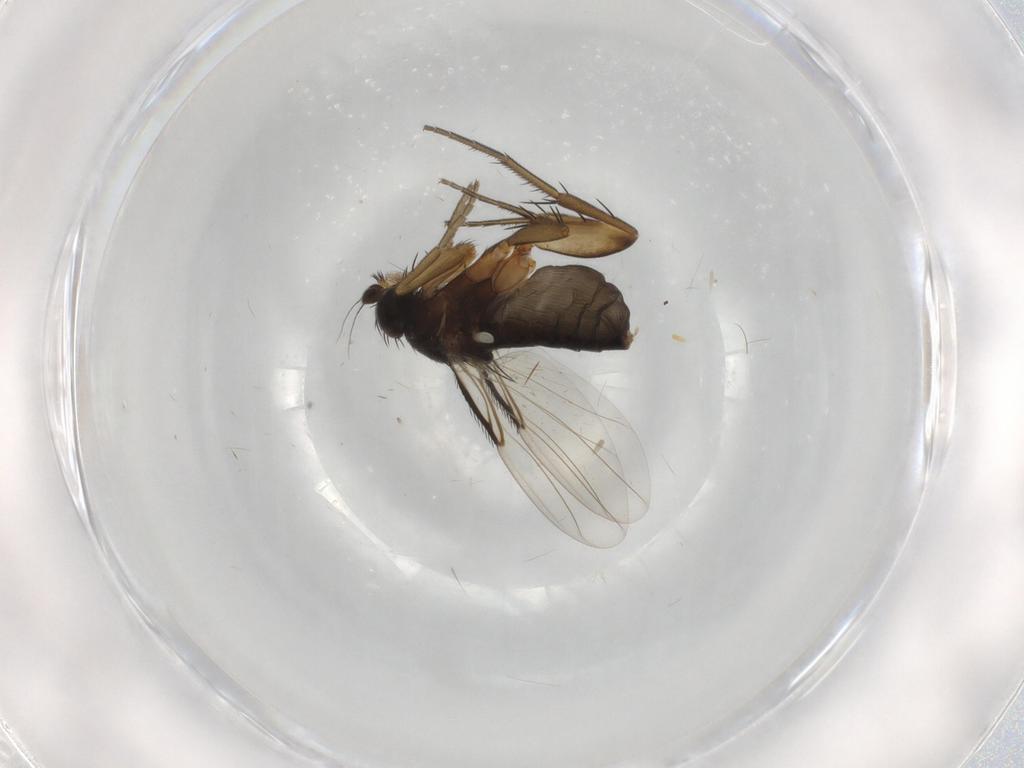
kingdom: Animalia
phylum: Arthropoda
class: Insecta
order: Diptera
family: Phoridae
